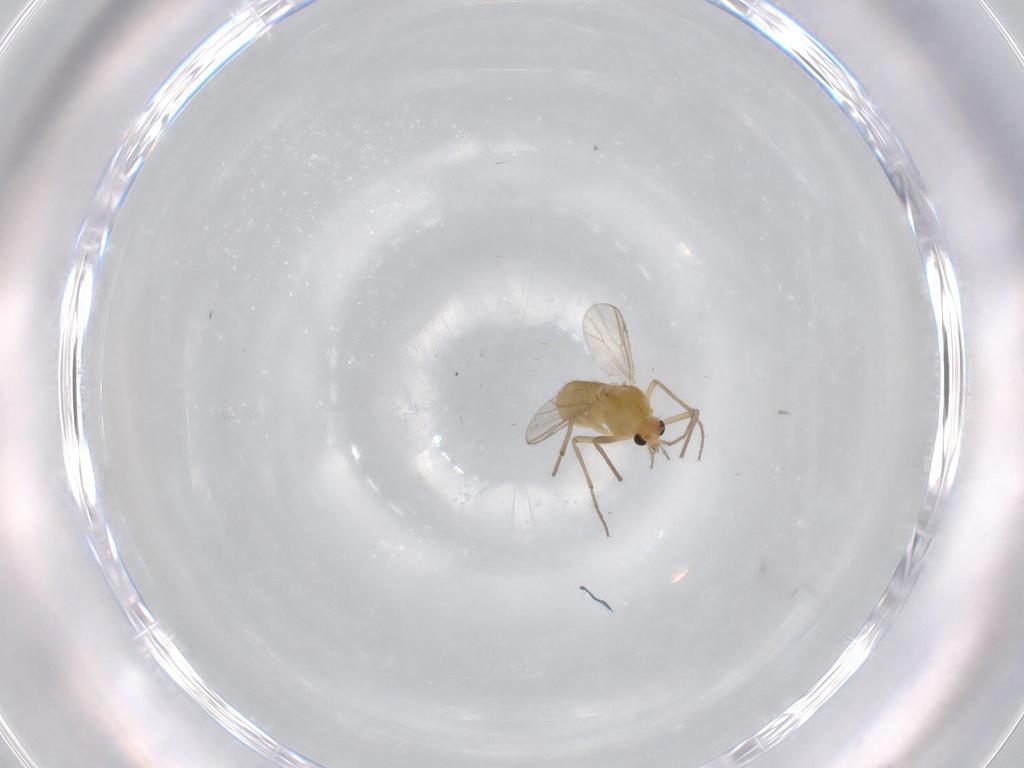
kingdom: Animalia
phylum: Arthropoda
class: Insecta
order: Diptera
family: Chironomidae
